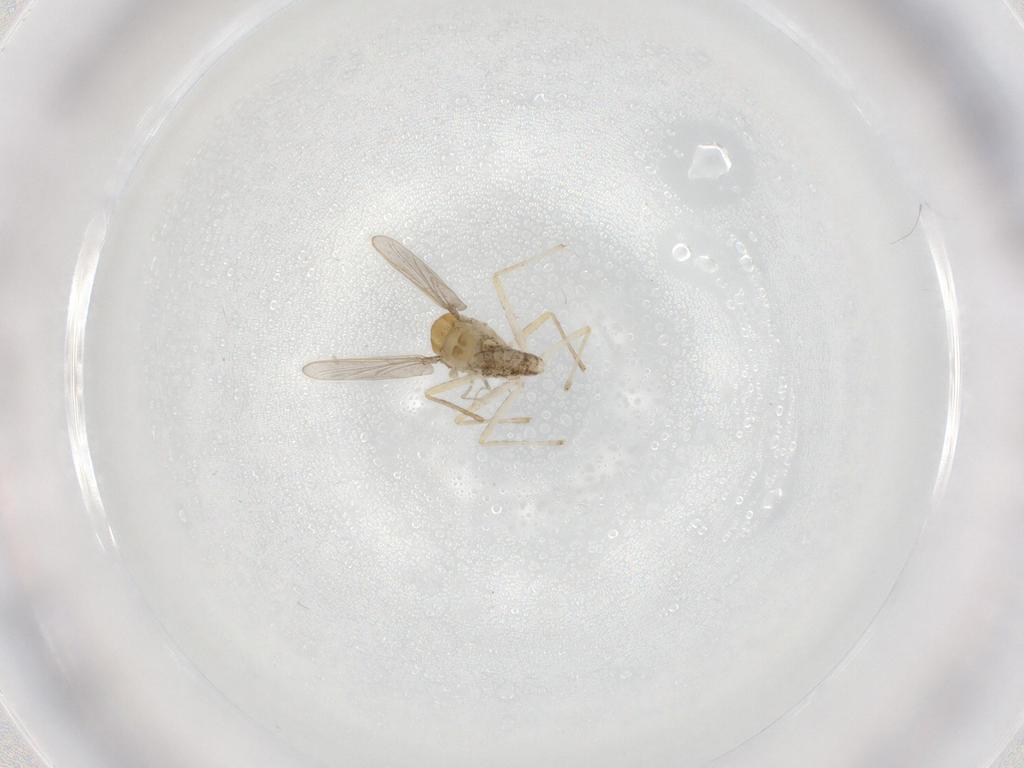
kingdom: Animalia
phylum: Arthropoda
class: Insecta
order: Diptera
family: Chironomidae
